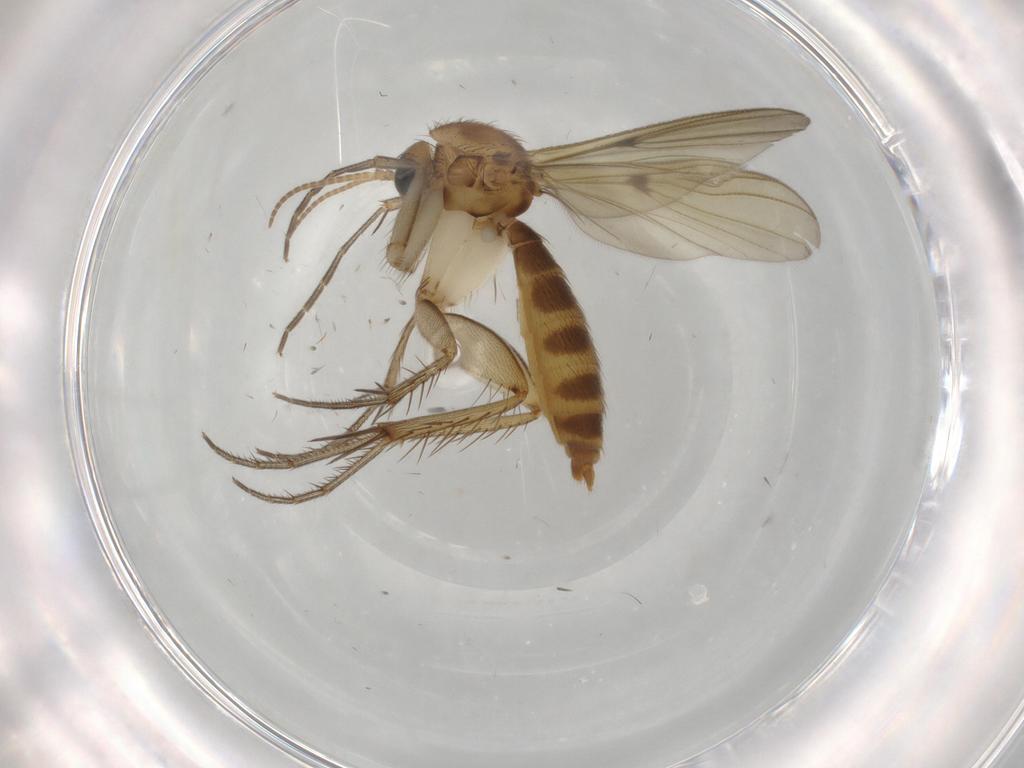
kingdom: Animalia
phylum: Arthropoda
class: Insecta
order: Diptera
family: Micropezidae
